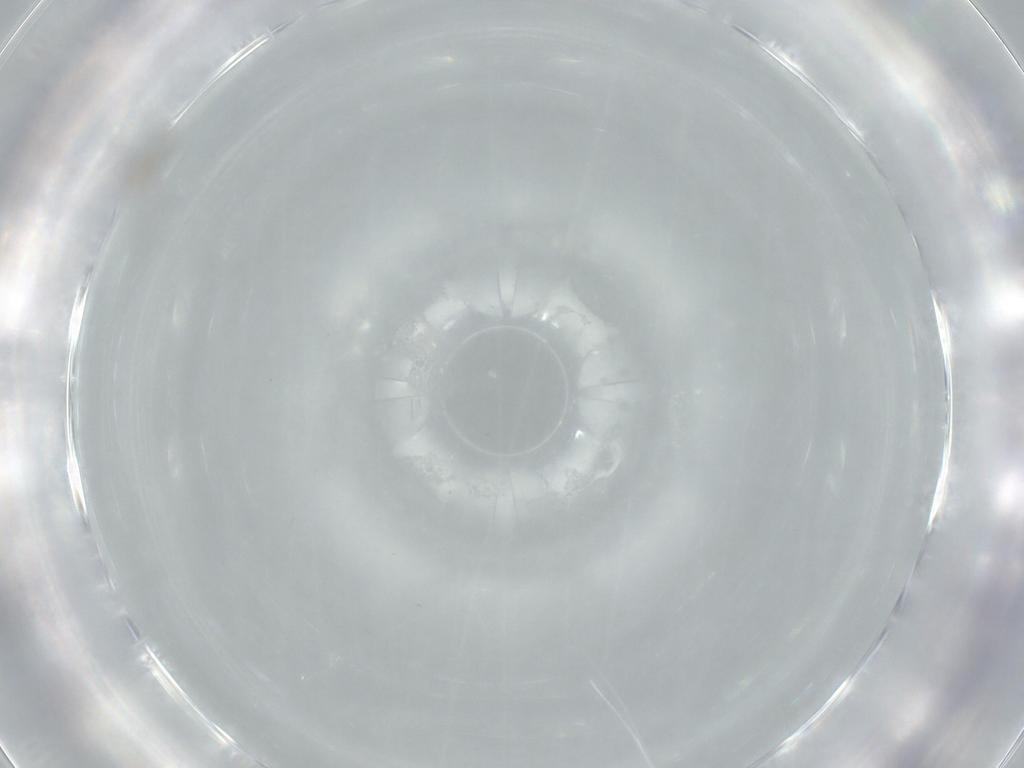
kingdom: Animalia
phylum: Arthropoda
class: Insecta
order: Diptera
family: Cecidomyiidae
